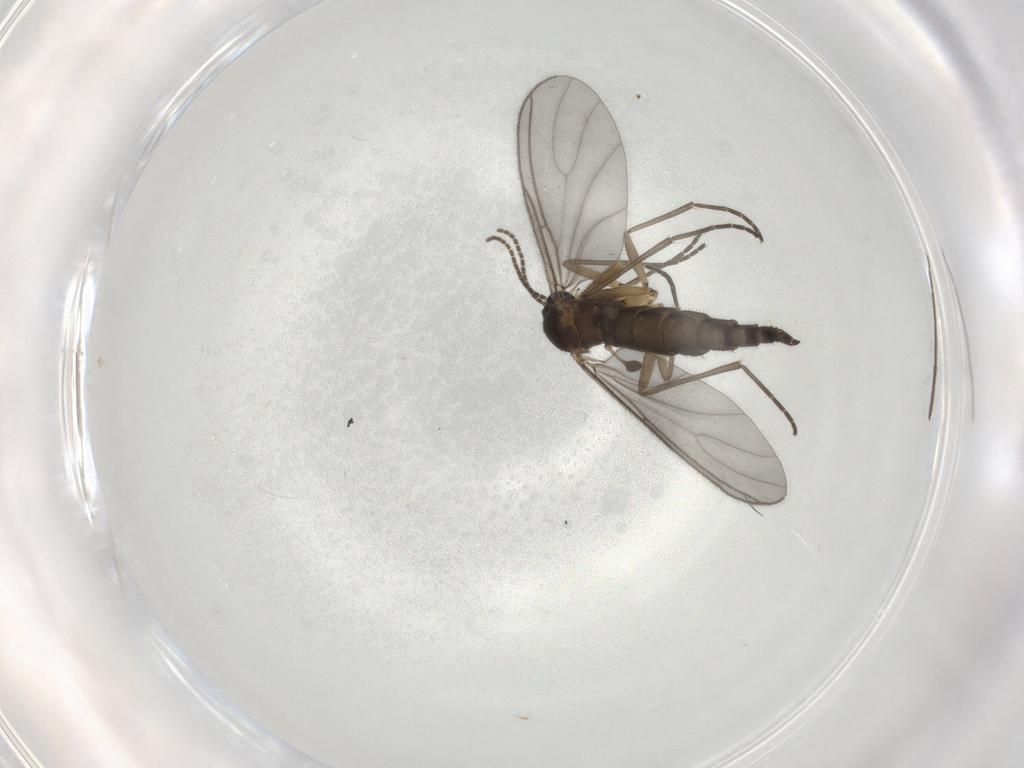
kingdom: Animalia
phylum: Arthropoda
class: Insecta
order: Diptera
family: Chironomidae
